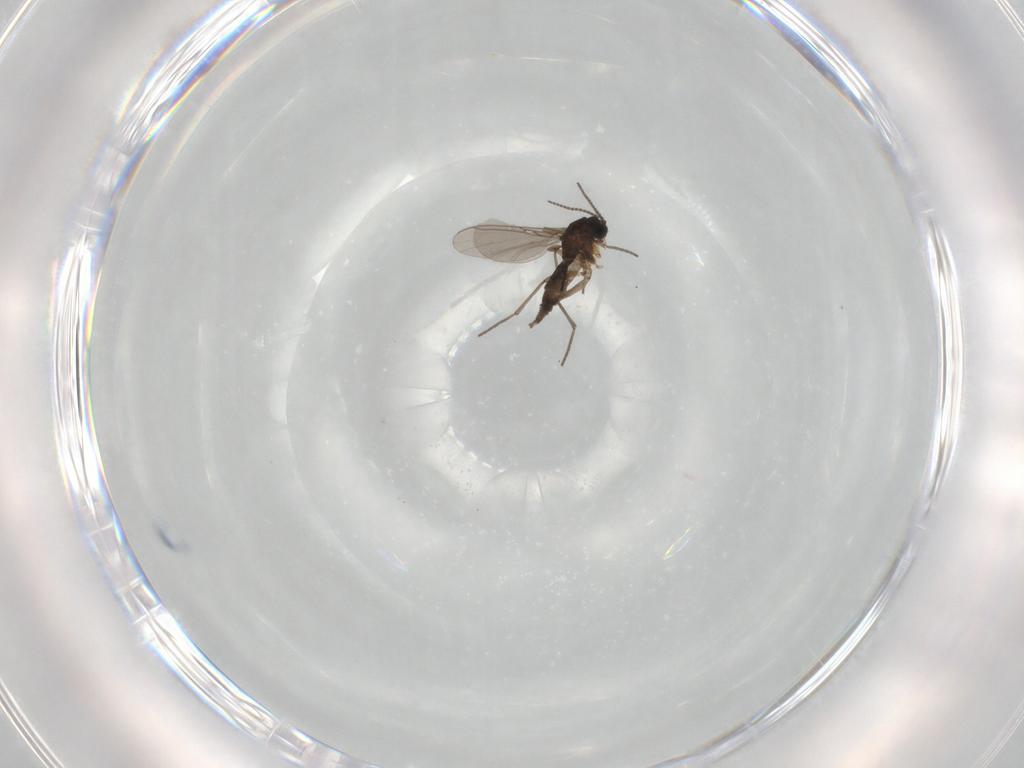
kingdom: Animalia
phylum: Arthropoda
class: Insecta
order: Diptera
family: Sciaridae
